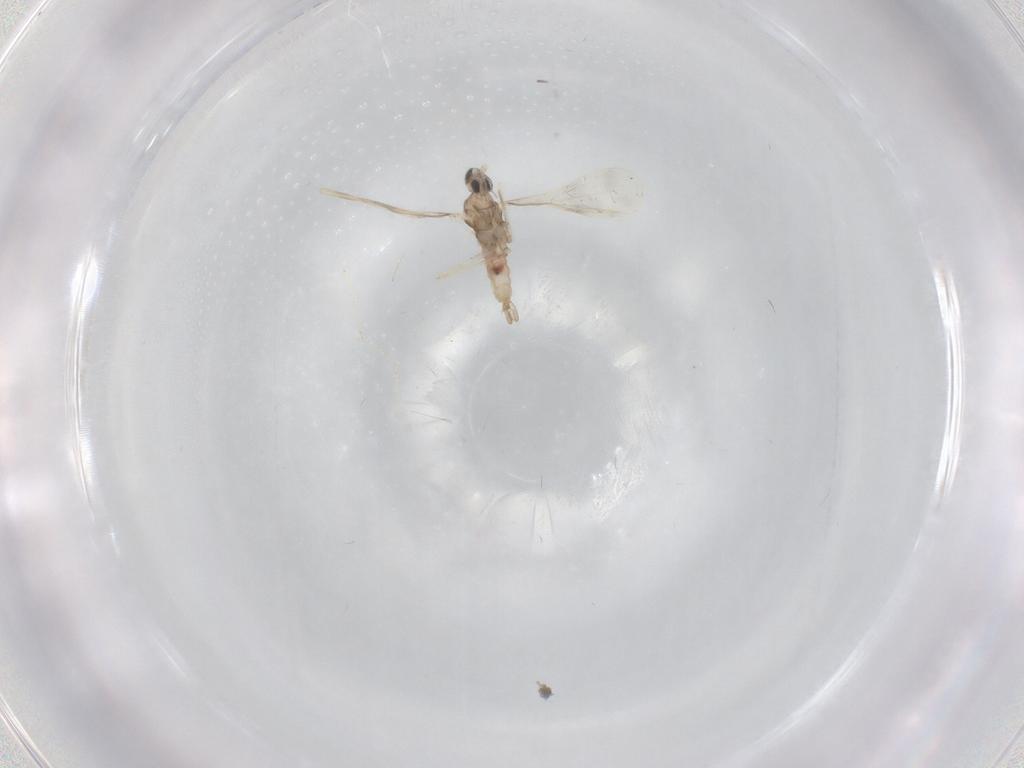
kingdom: Animalia
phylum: Arthropoda
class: Insecta
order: Diptera
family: Cecidomyiidae
